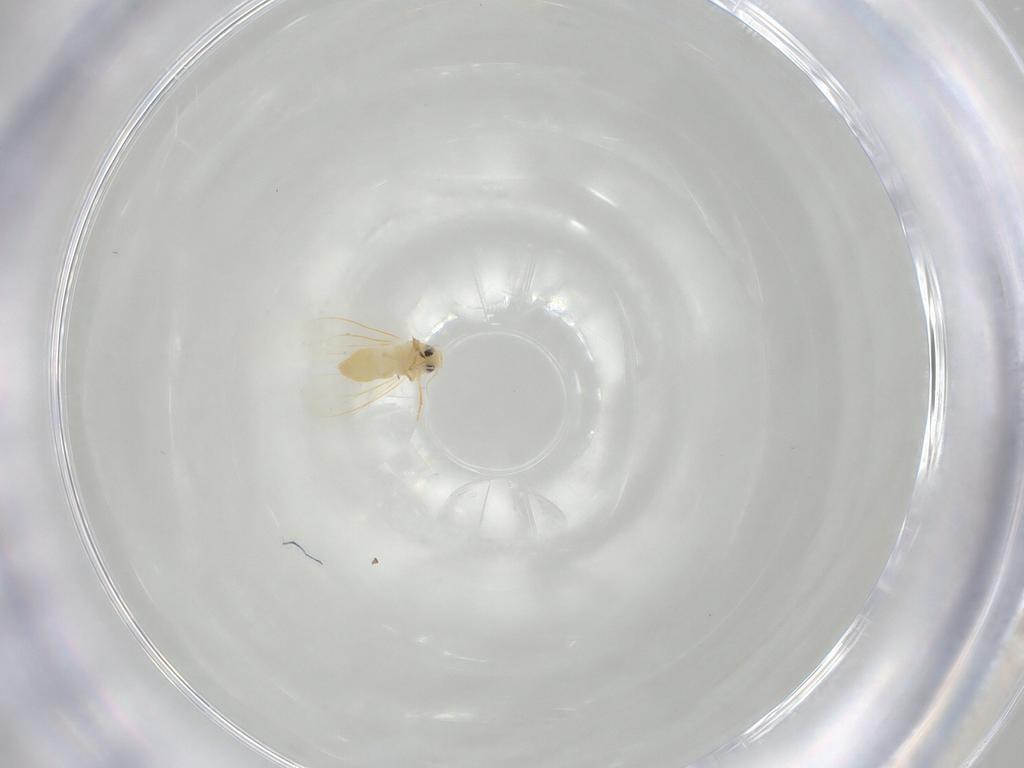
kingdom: Animalia
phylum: Arthropoda
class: Insecta
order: Hemiptera
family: Aleyrodidae
